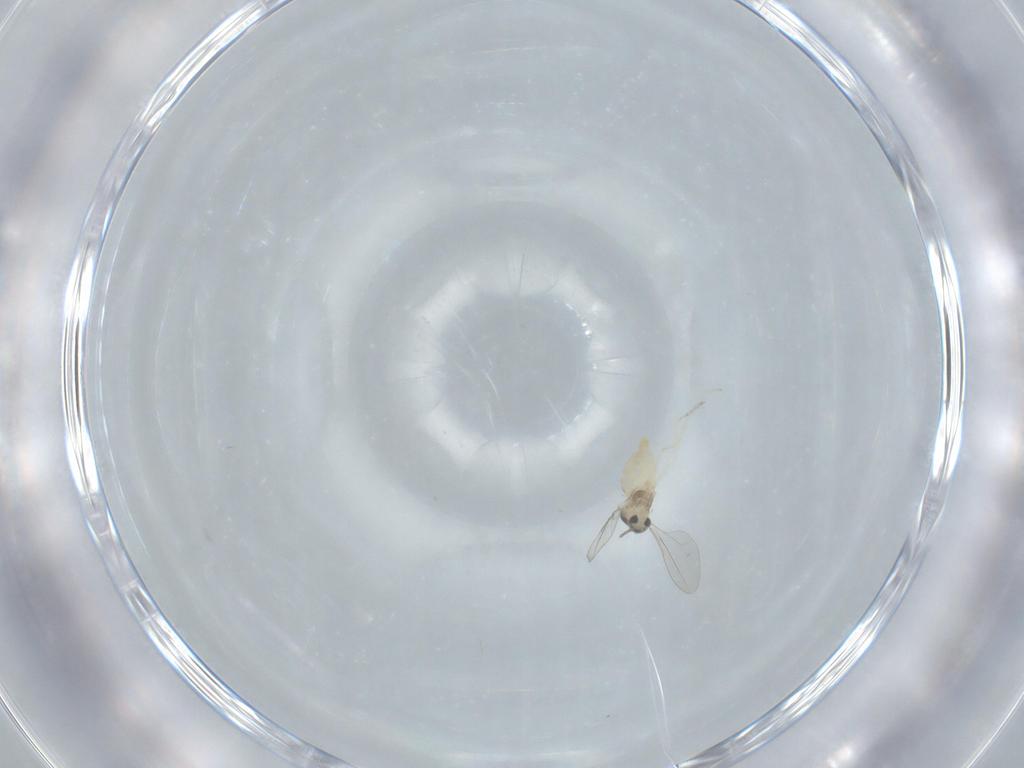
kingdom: Animalia
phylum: Arthropoda
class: Insecta
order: Diptera
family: Cecidomyiidae
